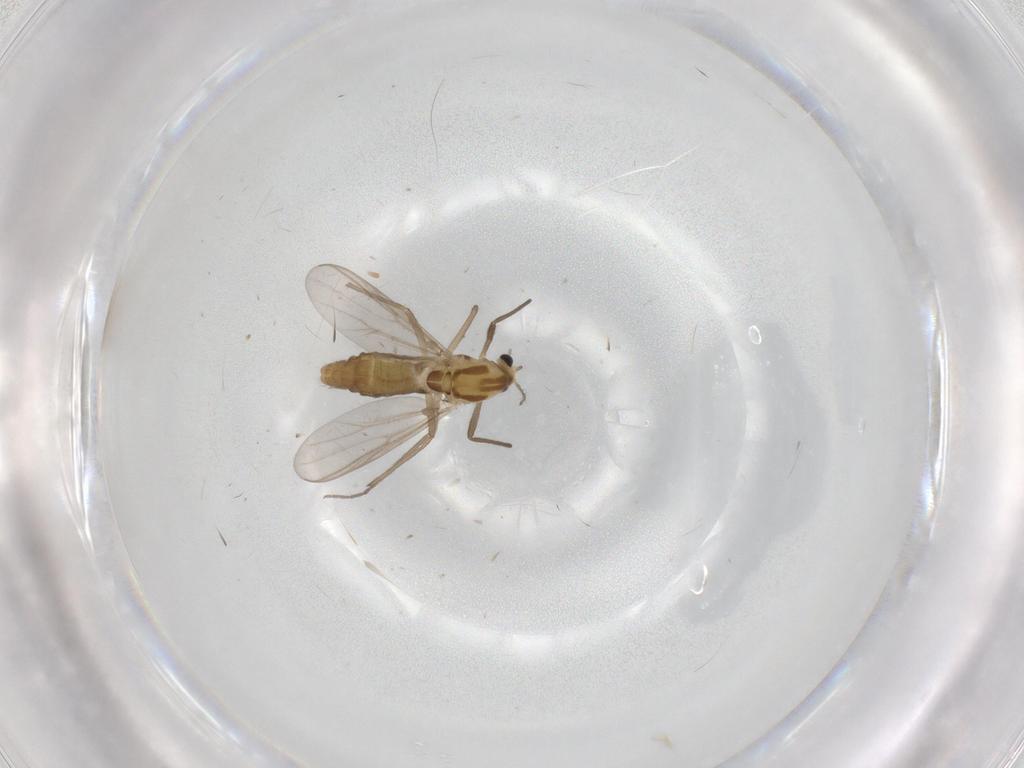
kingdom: Animalia
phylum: Arthropoda
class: Insecta
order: Diptera
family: Chironomidae
